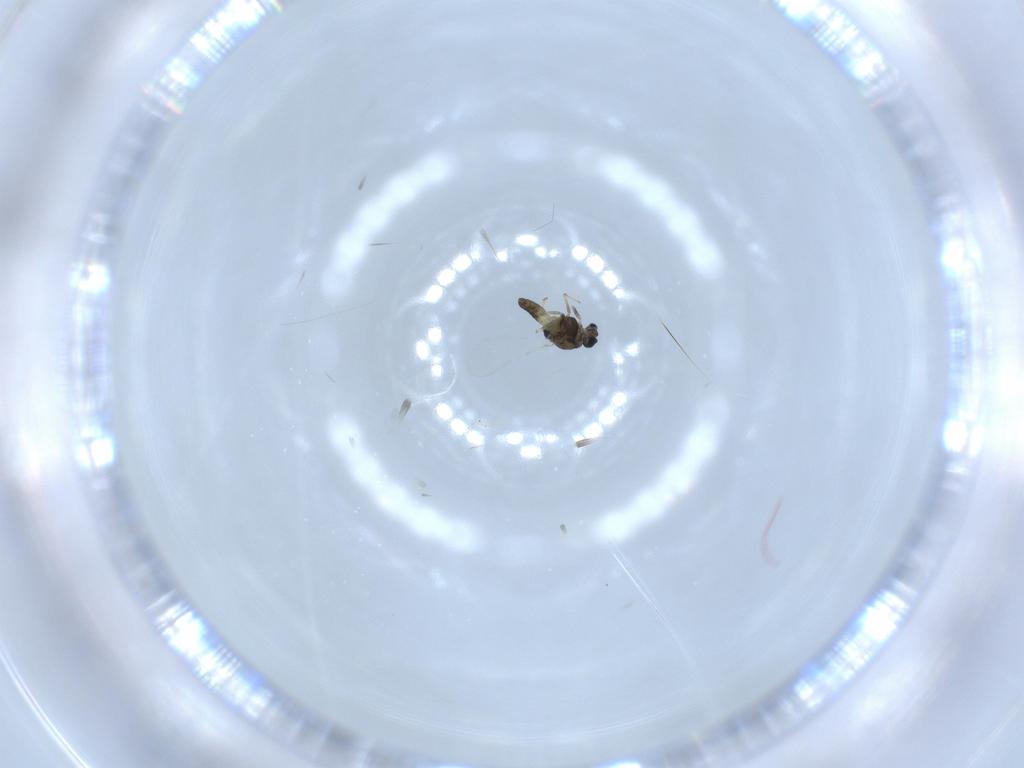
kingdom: Animalia
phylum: Arthropoda
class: Insecta
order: Diptera
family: Chironomidae
